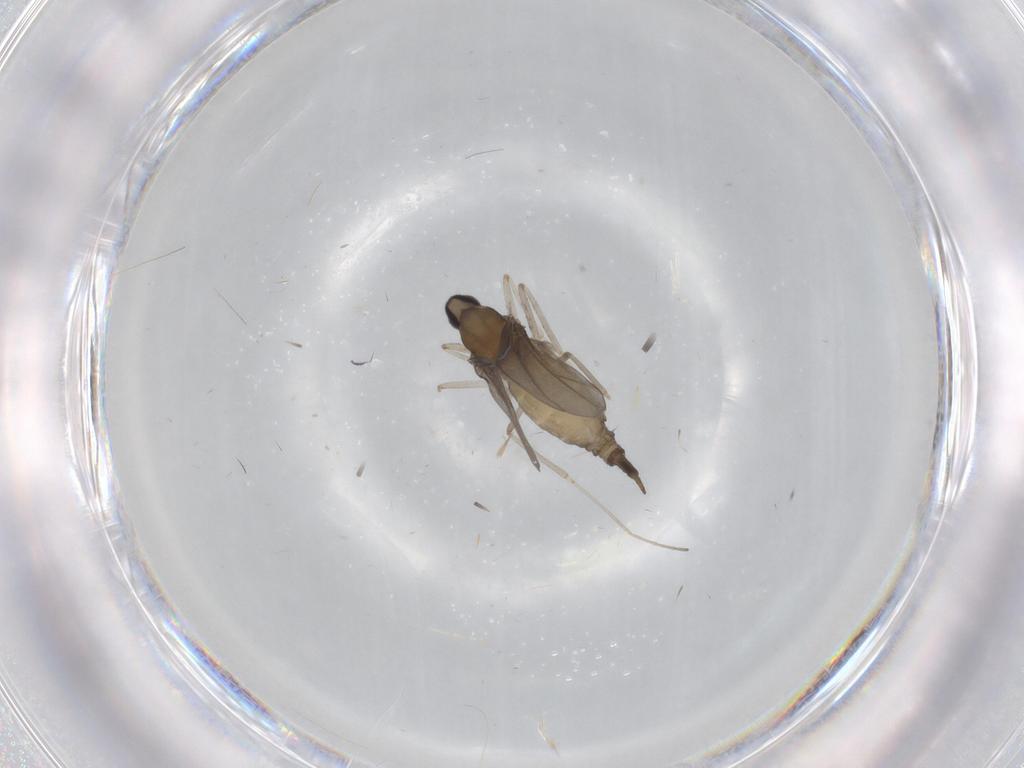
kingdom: Animalia
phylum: Arthropoda
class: Insecta
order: Diptera
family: Cecidomyiidae
